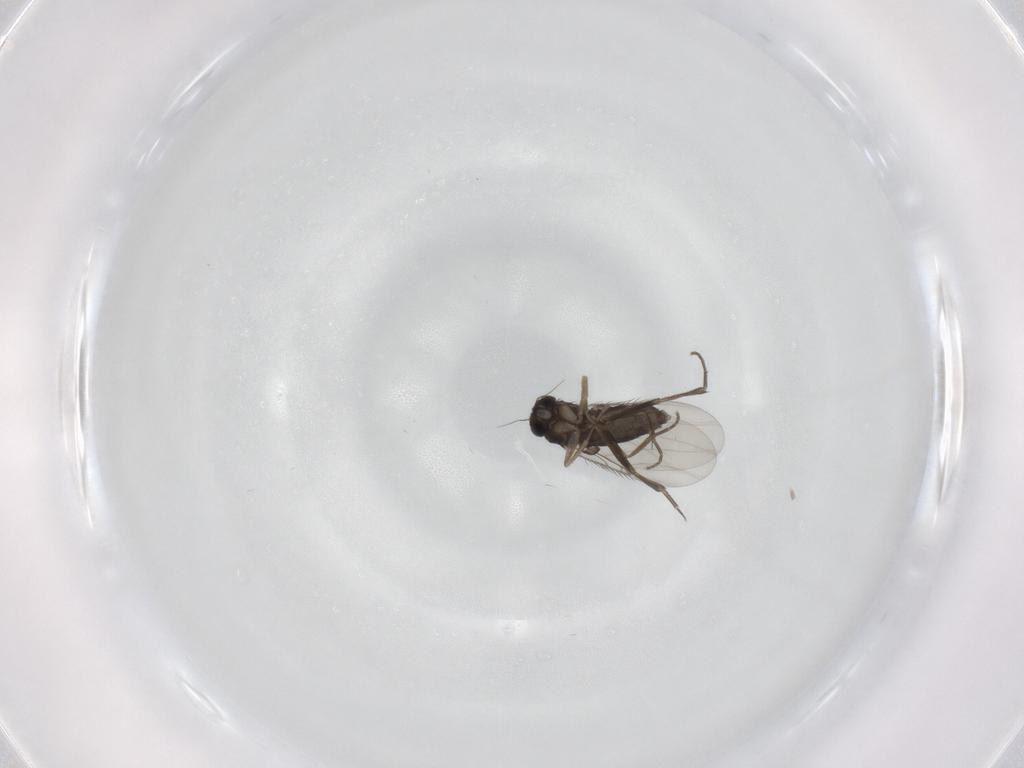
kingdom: Animalia
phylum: Arthropoda
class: Insecta
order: Diptera
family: Phoridae
